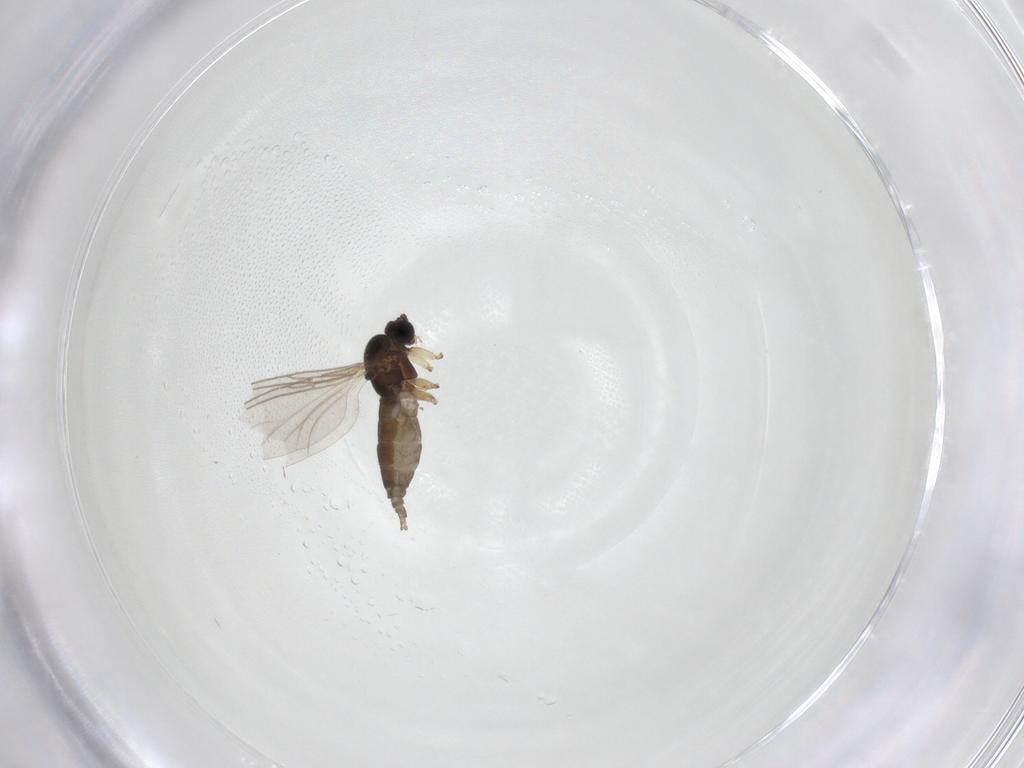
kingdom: Animalia
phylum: Arthropoda
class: Insecta
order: Diptera
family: Sciaridae
